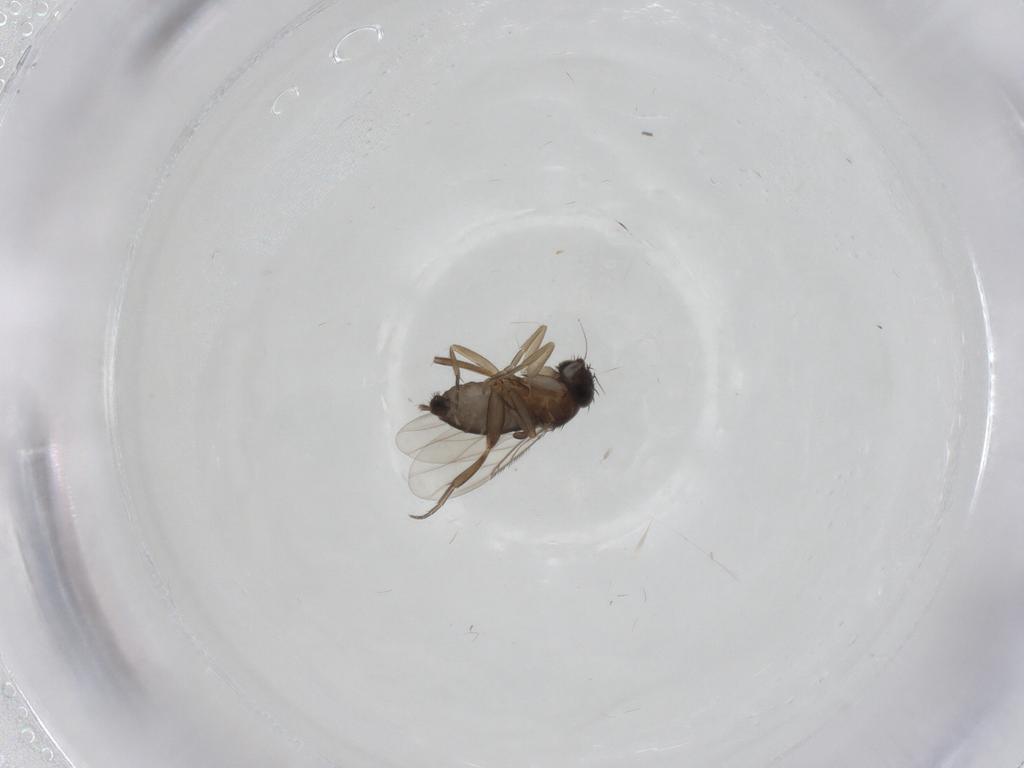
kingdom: Animalia
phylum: Arthropoda
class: Insecta
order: Diptera
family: Phoridae
